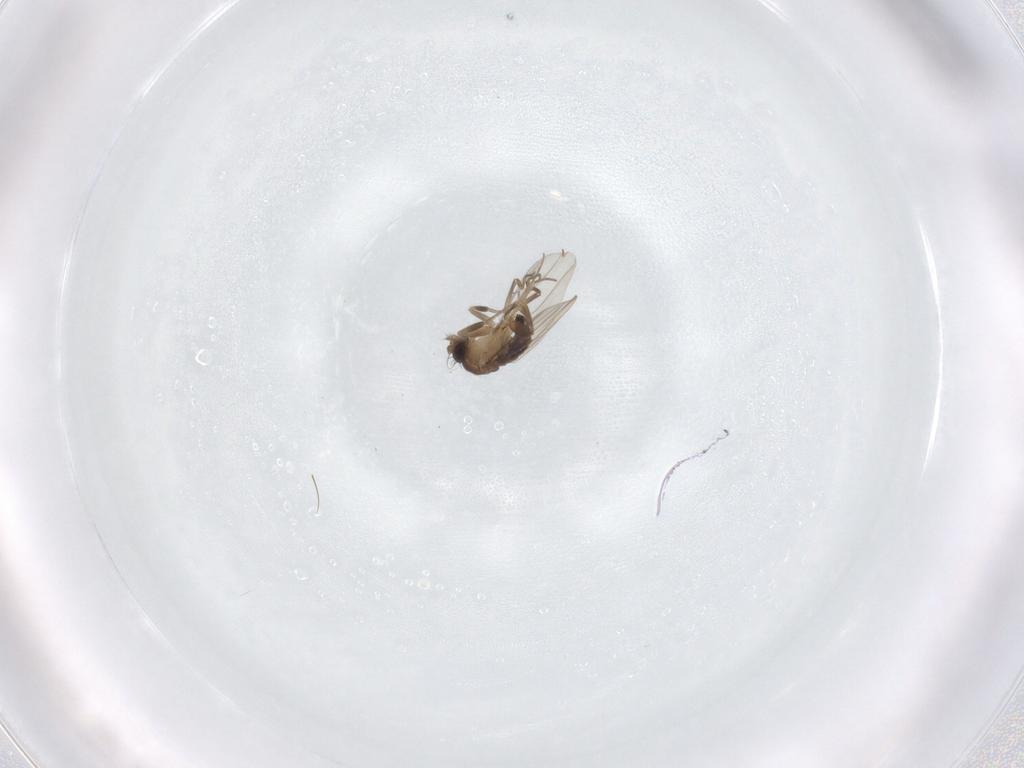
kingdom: Animalia
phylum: Arthropoda
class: Insecta
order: Diptera
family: Phoridae
